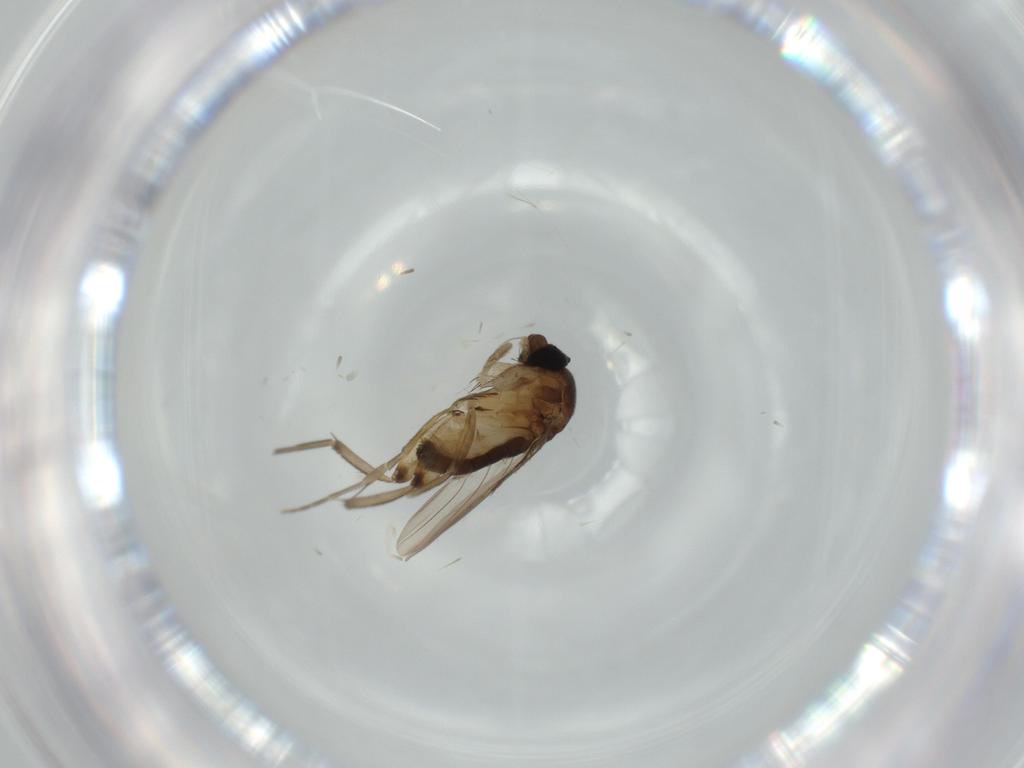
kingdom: Animalia
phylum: Arthropoda
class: Insecta
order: Diptera
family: Phoridae
